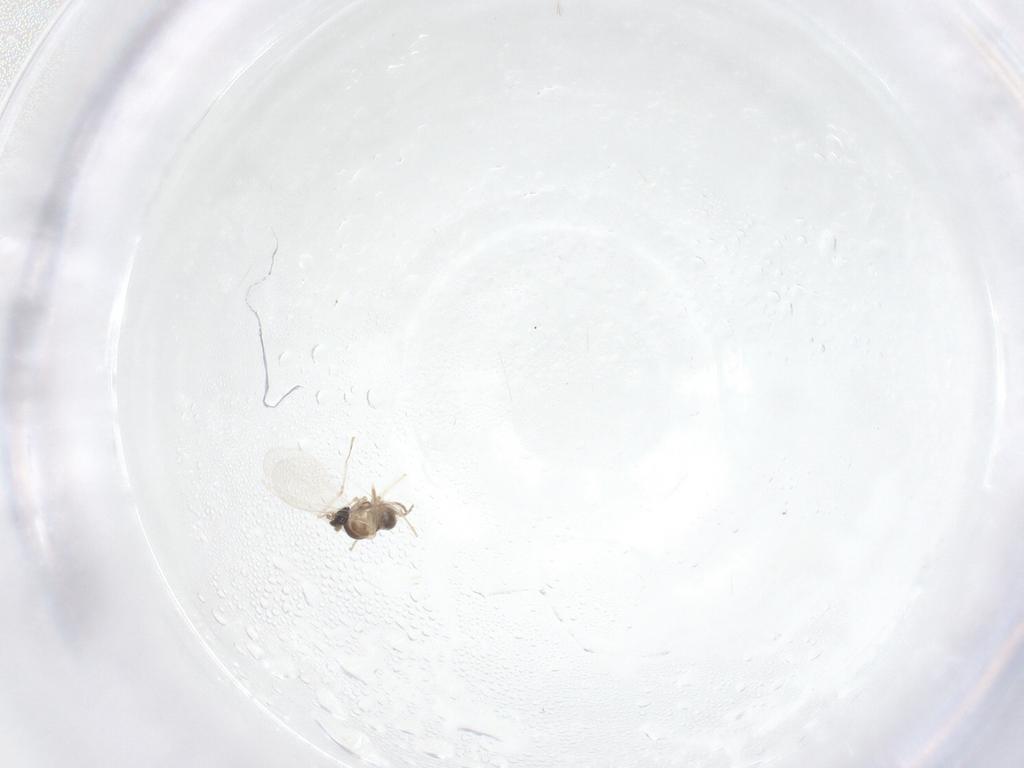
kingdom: Animalia
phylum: Arthropoda
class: Insecta
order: Diptera
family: Cecidomyiidae
